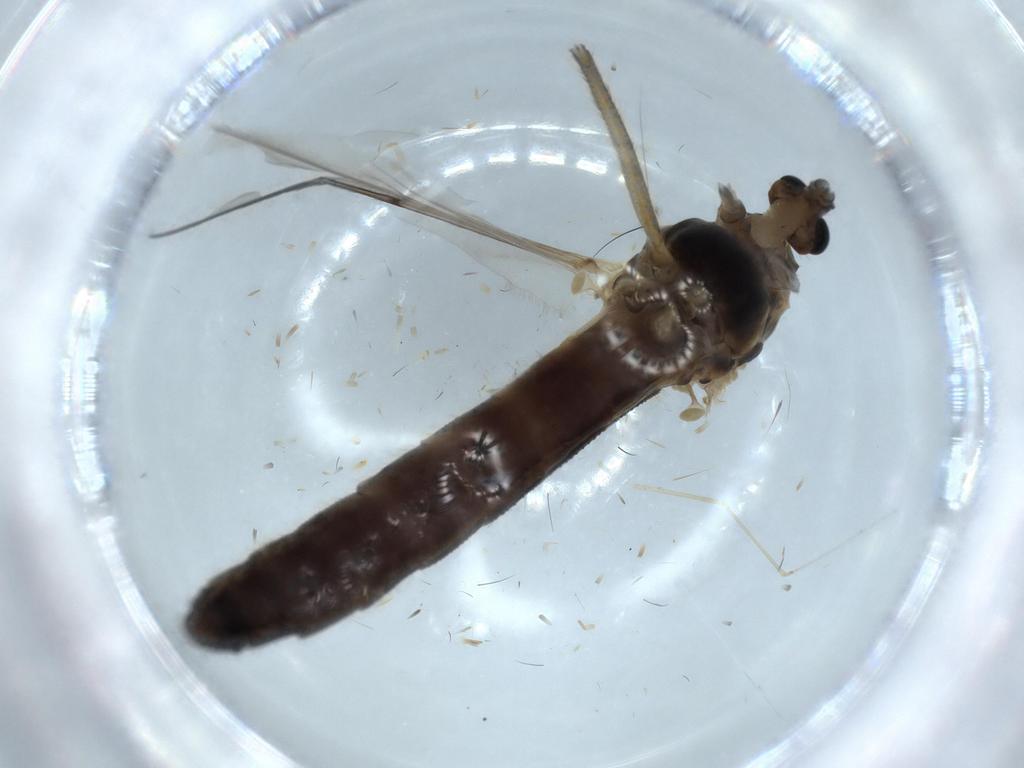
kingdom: Animalia
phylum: Arthropoda
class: Insecta
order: Diptera
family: Chironomidae
